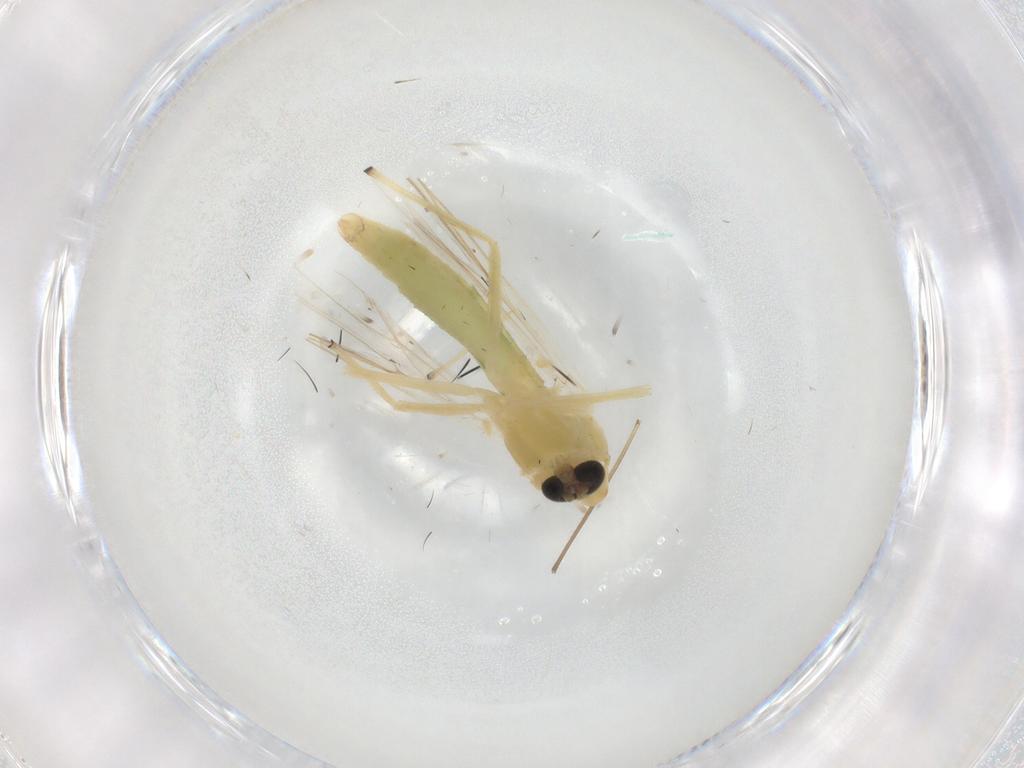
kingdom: Animalia
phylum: Arthropoda
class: Insecta
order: Diptera
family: Chironomidae
